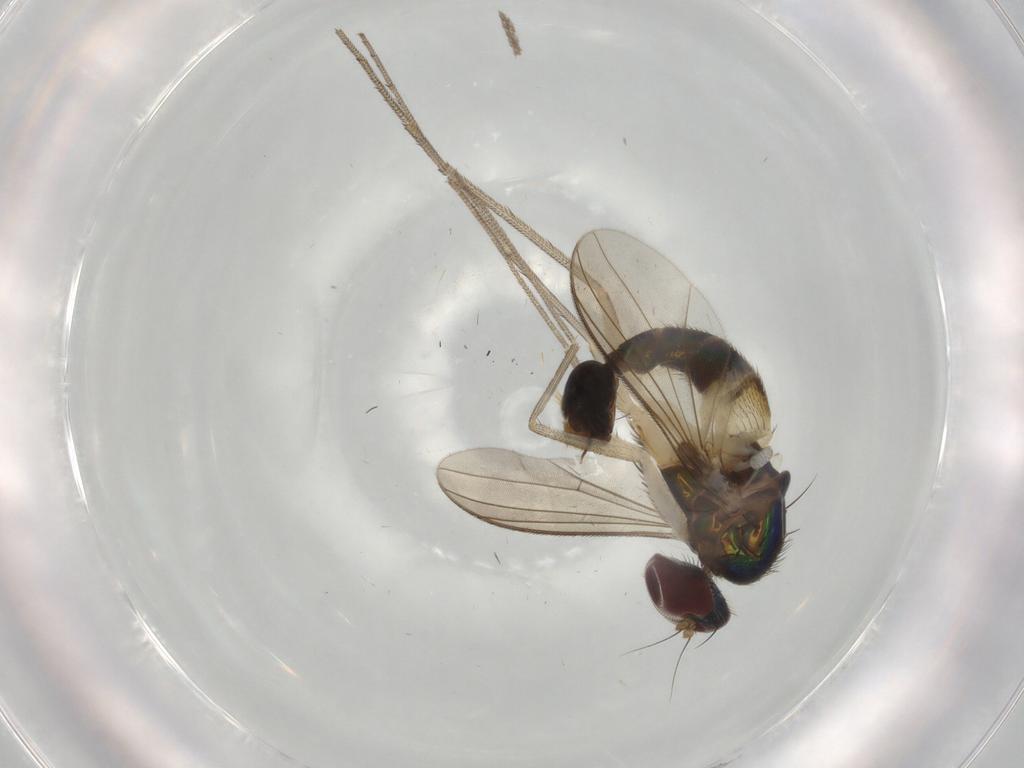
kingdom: Animalia
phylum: Arthropoda
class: Insecta
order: Diptera
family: Dolichopodidae
